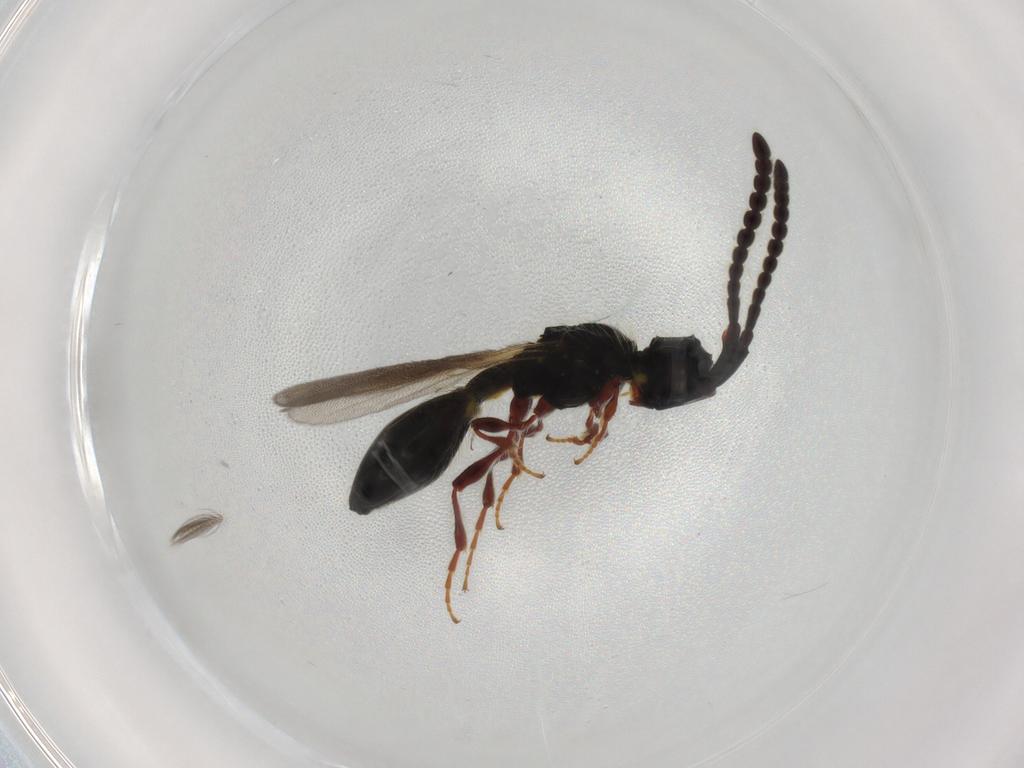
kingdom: Animalia
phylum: Arthropoda
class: Insecta
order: Hymenoptera
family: Diapriidae
